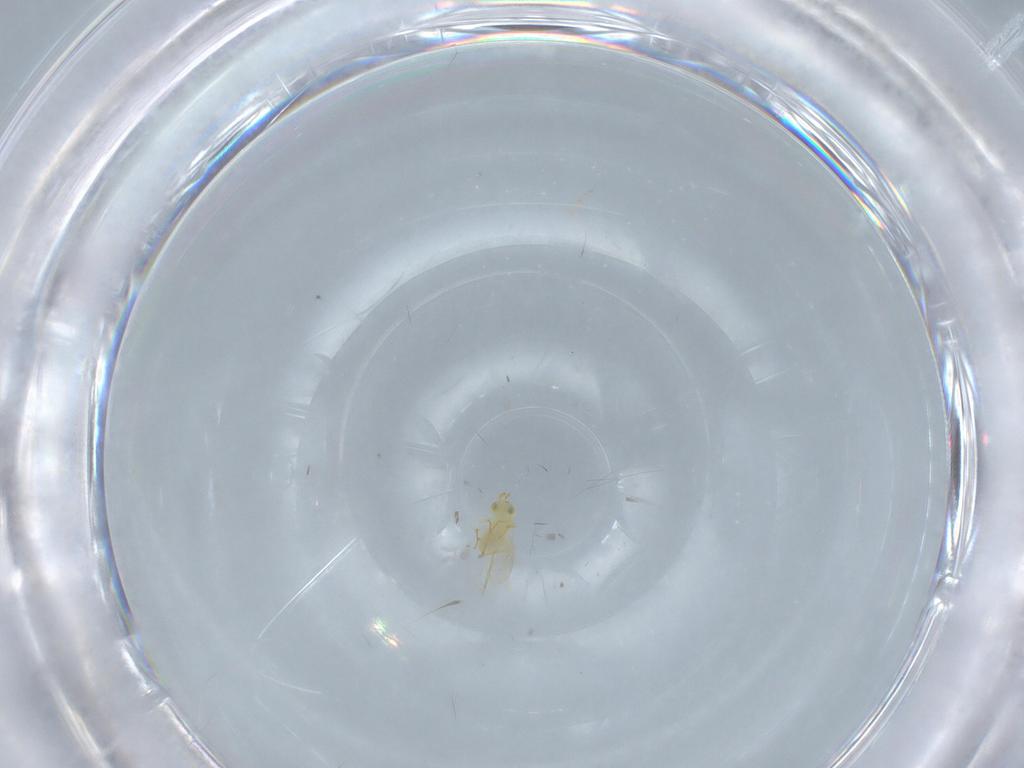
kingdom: Animalia
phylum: Arthropoda
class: Insecta
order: Hymenoptera
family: Aphelinidae
